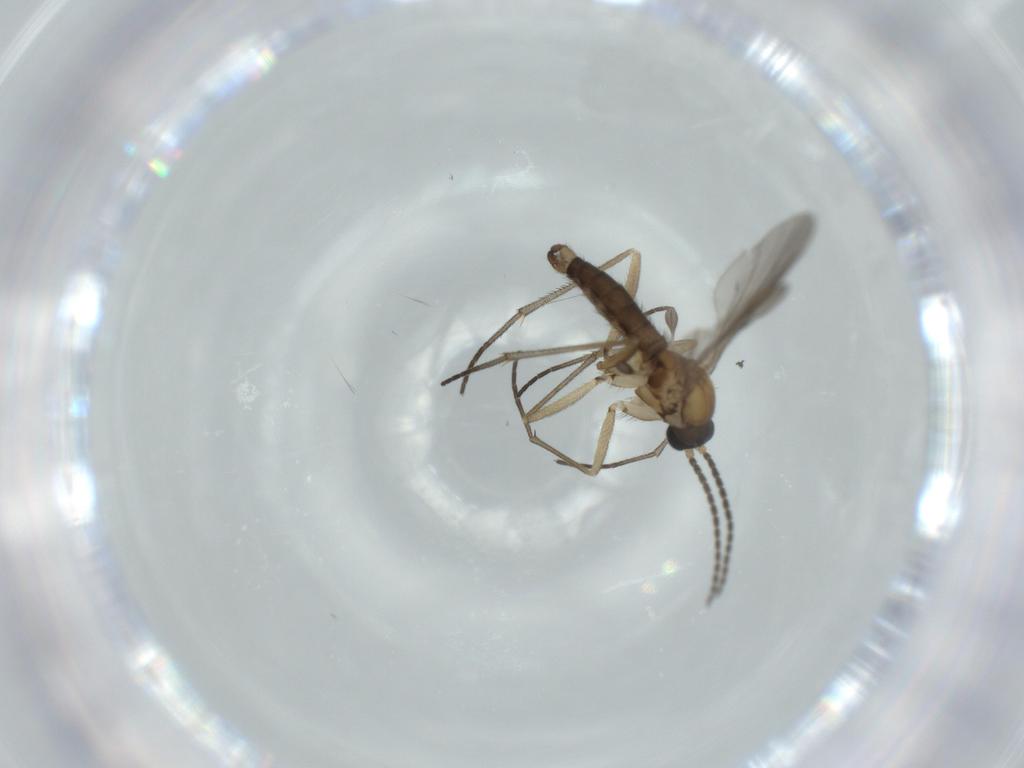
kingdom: Animalia
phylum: Arthropoda
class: Insecta
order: Diptera
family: Sciaridae
